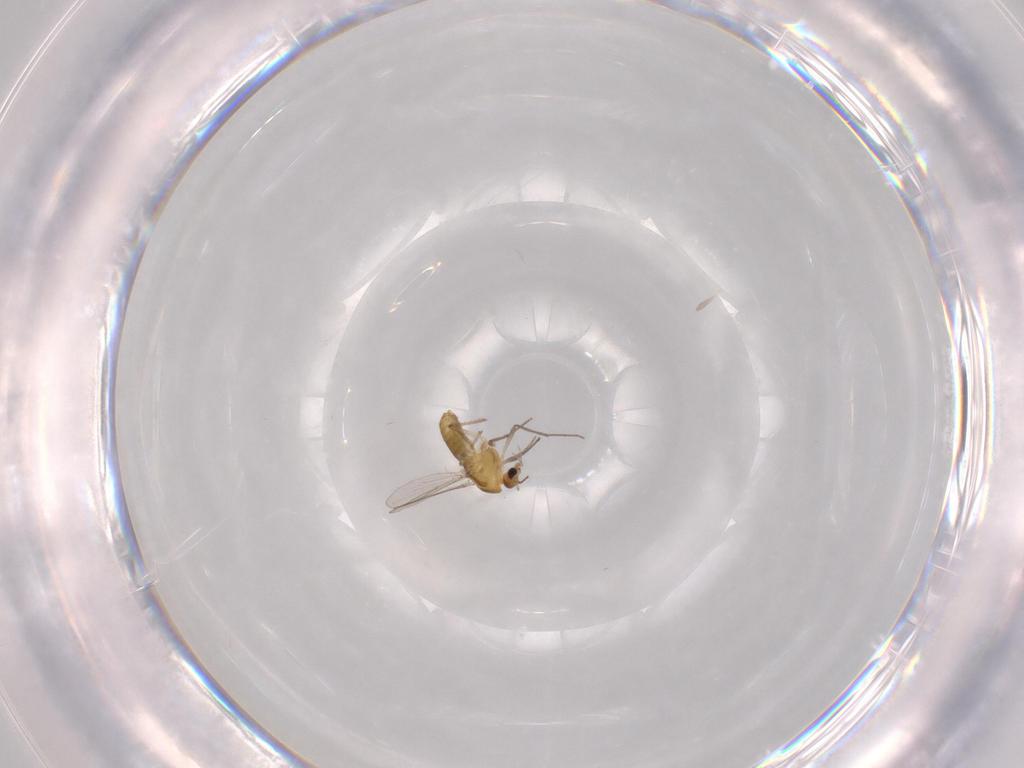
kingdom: Animalia
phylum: Arthropoda
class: Insecta
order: Diptera
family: Chironomidae
